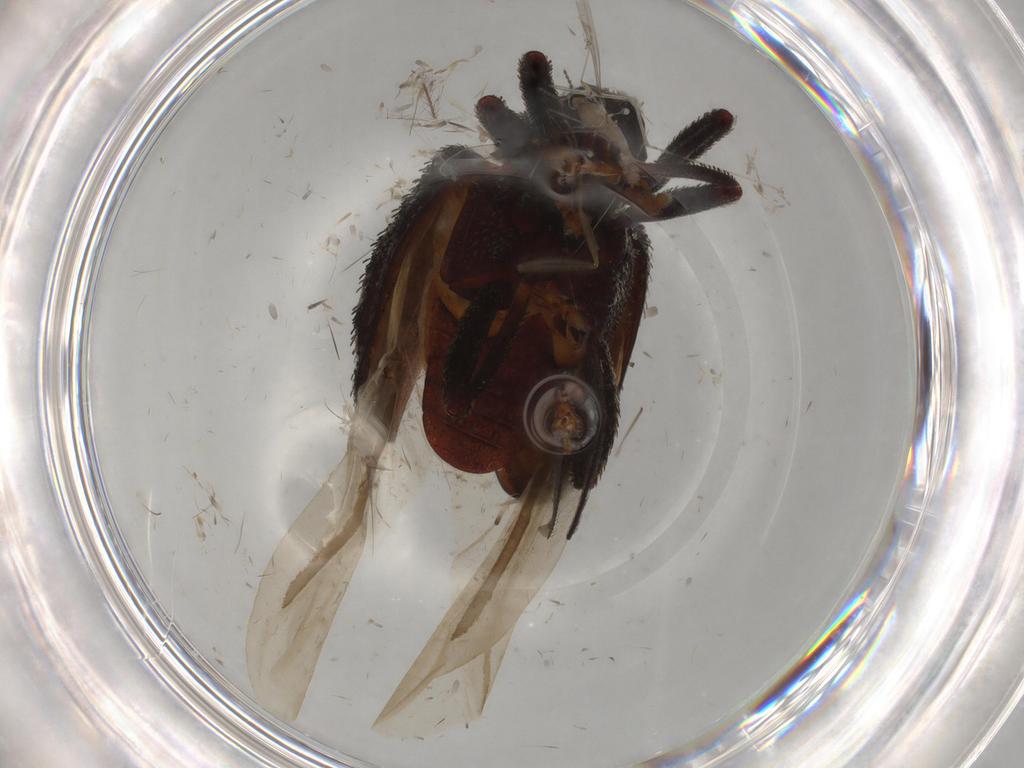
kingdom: Animalia
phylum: Arthropoda
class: Insecta
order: Coleoptera
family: Curculionidae
